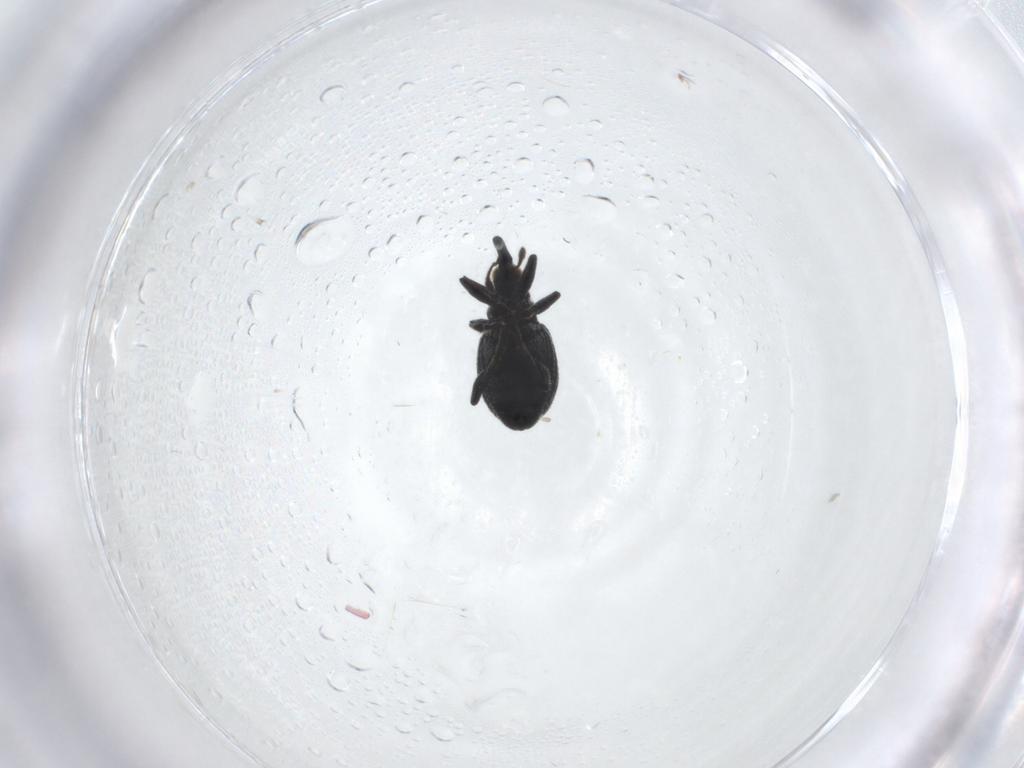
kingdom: Animalia
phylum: Arthropoda
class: Insecta
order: Coleoptera
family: Brentidae
